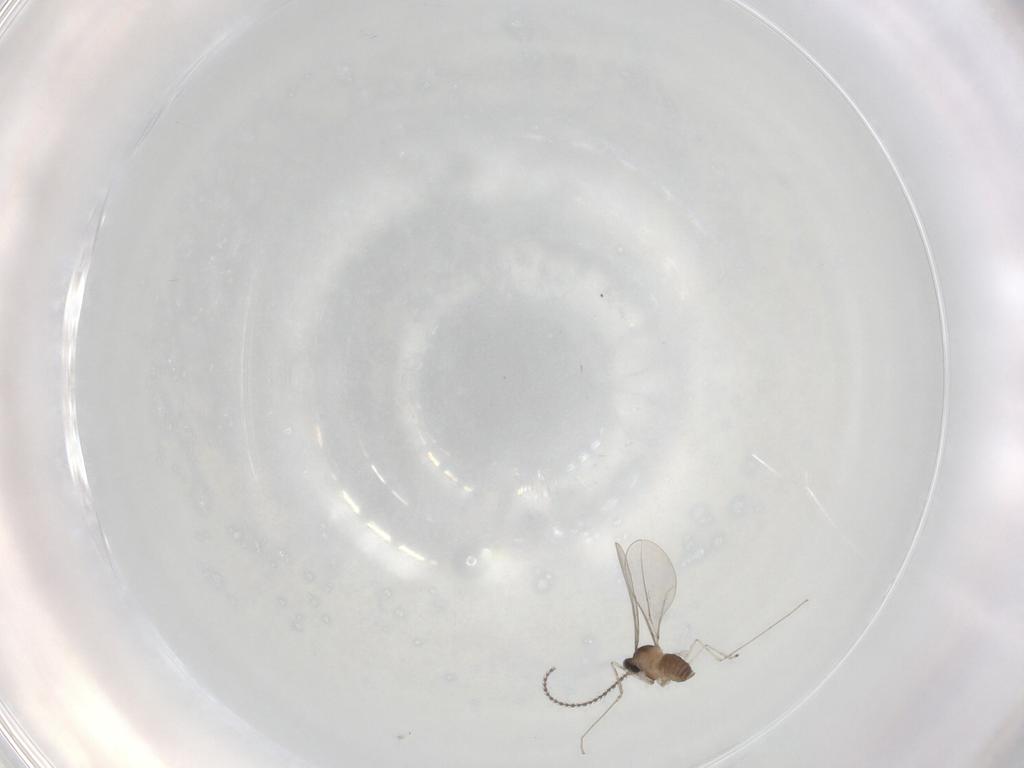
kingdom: Animalia
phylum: Arthropoda
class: Insecta
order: Diptera
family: Cecidomyiidae
